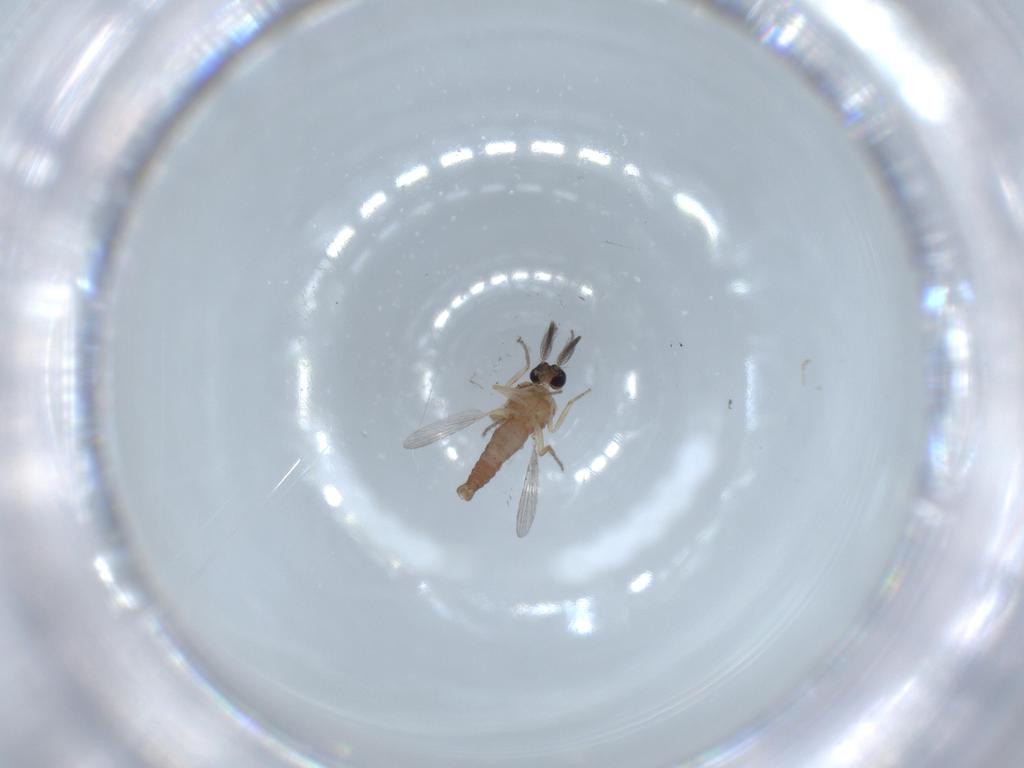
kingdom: Animalia
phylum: Arthropoda
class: Insecta
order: Diptera
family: Ceratopogonidae
